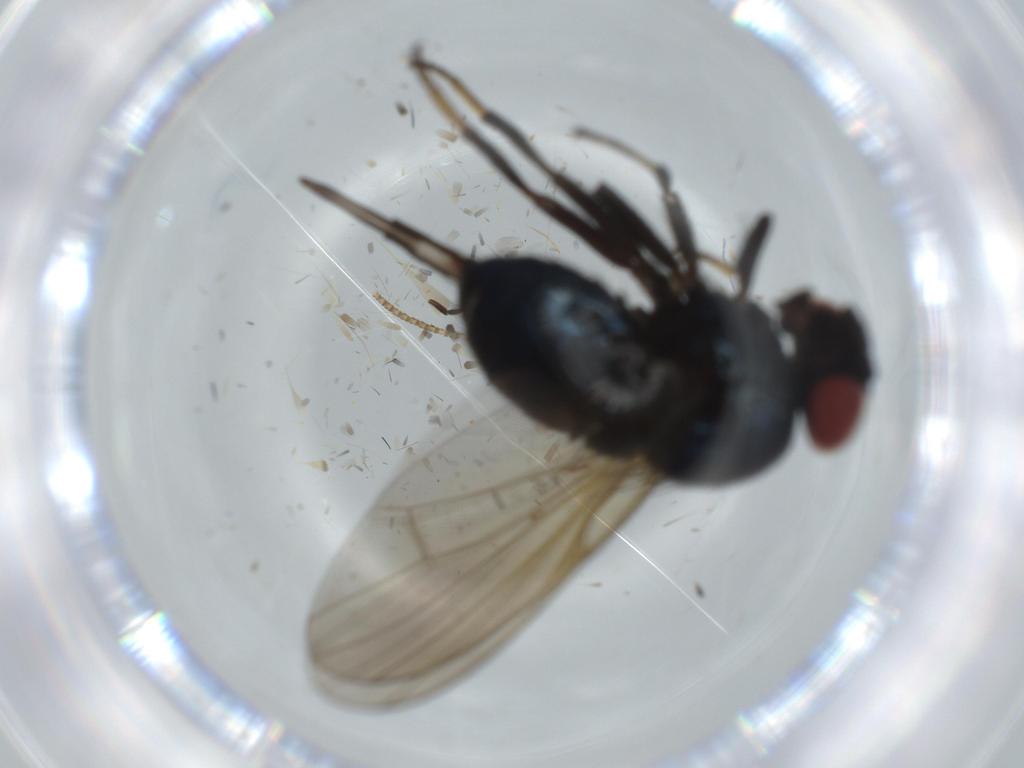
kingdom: Animalia
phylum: Arthropoda
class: Insecta
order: Diptera
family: Lonchaeidae
